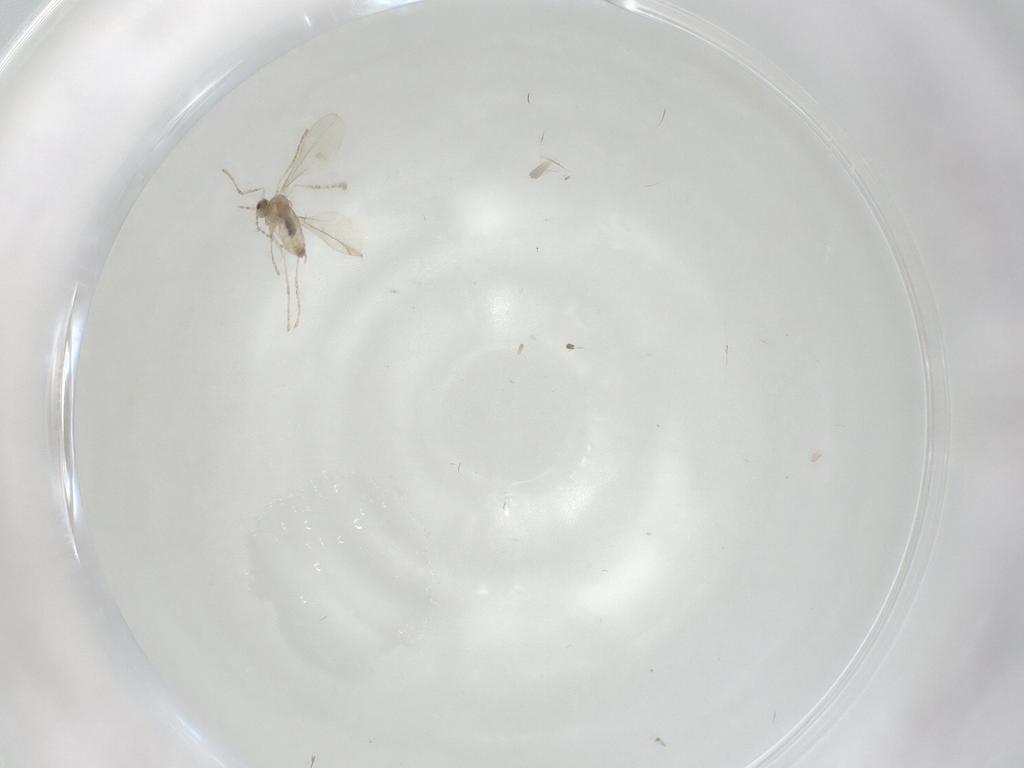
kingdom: Animalia
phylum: Arthropoda
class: Insecta
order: Diptera
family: Cecidomyiidae
